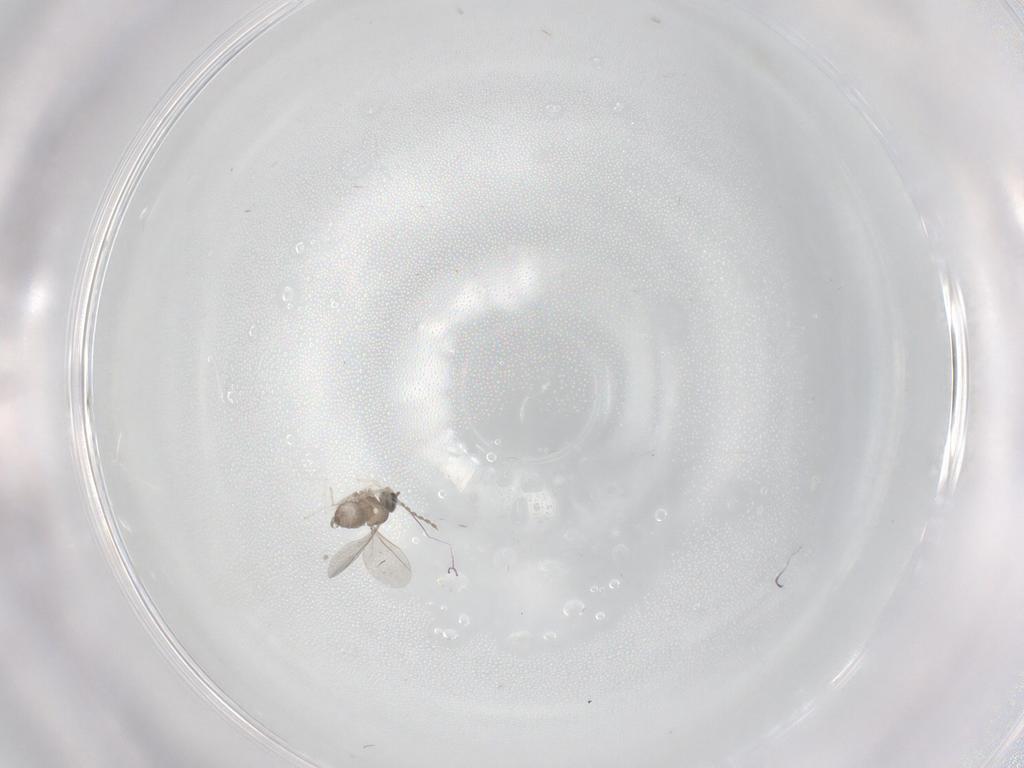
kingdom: Animalia
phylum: Arthropoda
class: Insecta
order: Diptera
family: Cecidomyiidae
